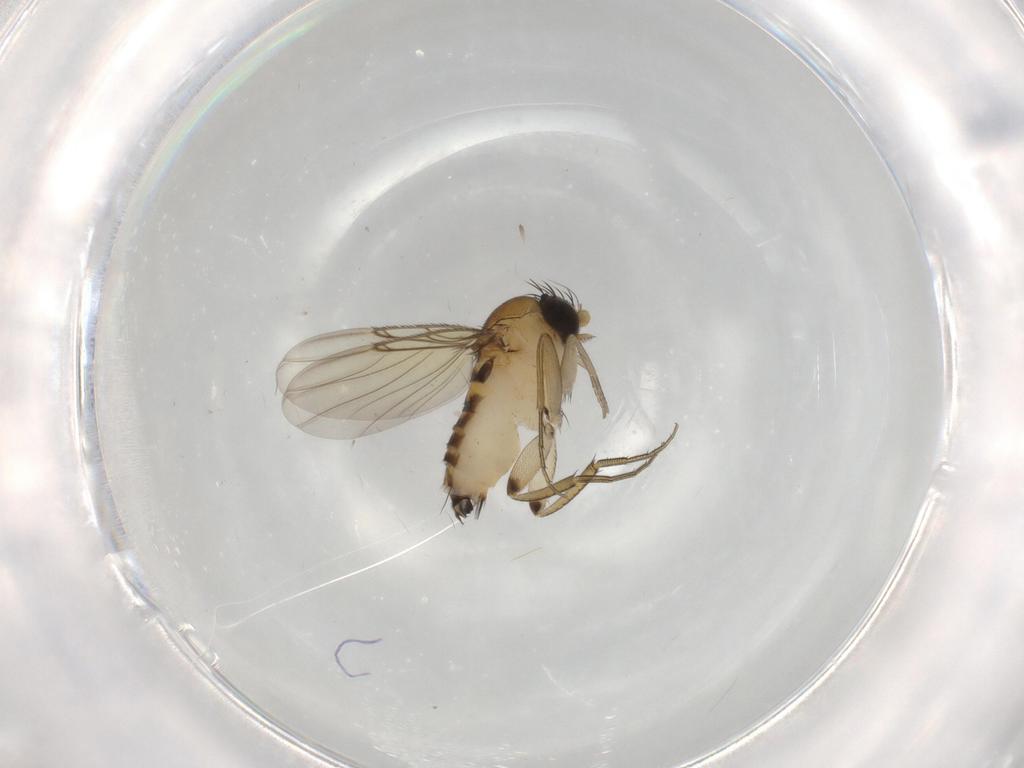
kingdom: Animalia
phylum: Arthropoda
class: Insecta
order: Diptera
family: Phoridae
